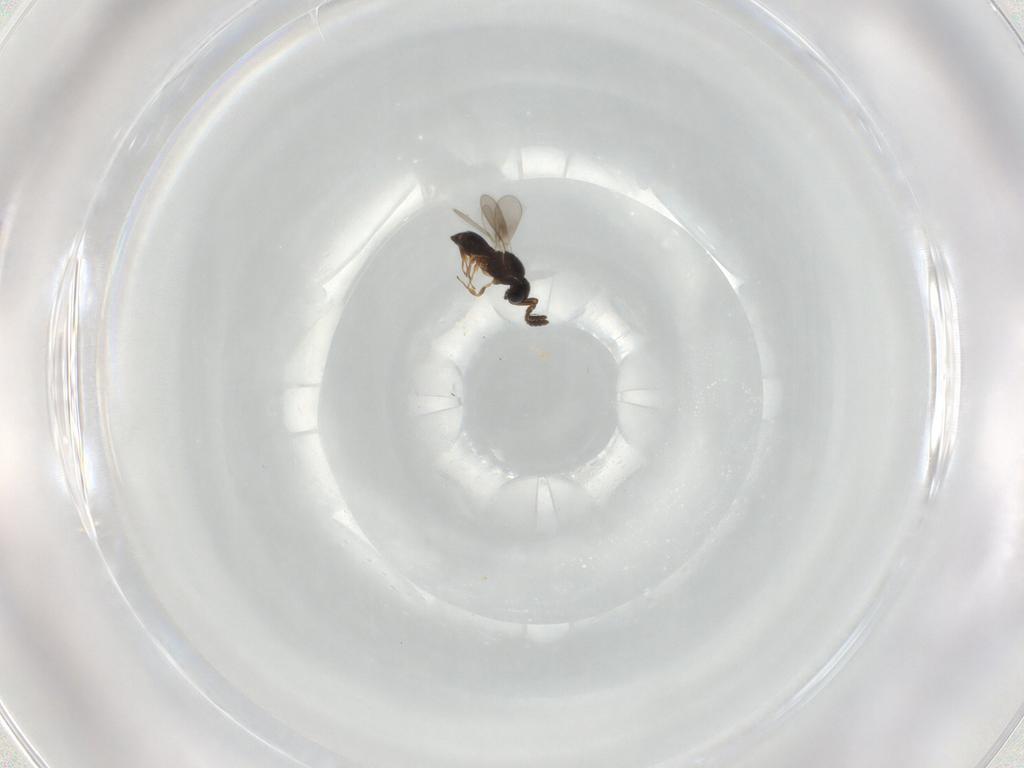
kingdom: Animalia
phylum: Arthropoda
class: Insecta
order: Hymenoptera
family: Scelionidae
